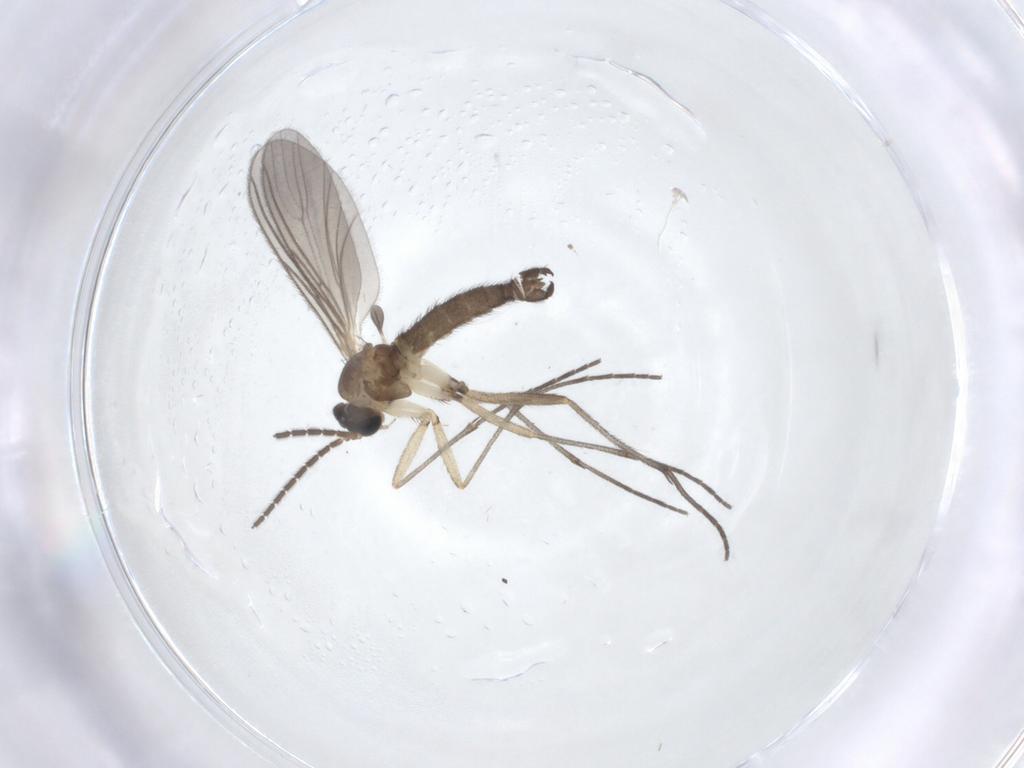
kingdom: Animalia
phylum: Arthropoda
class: Insecta
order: Diptera
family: Sciaridae
